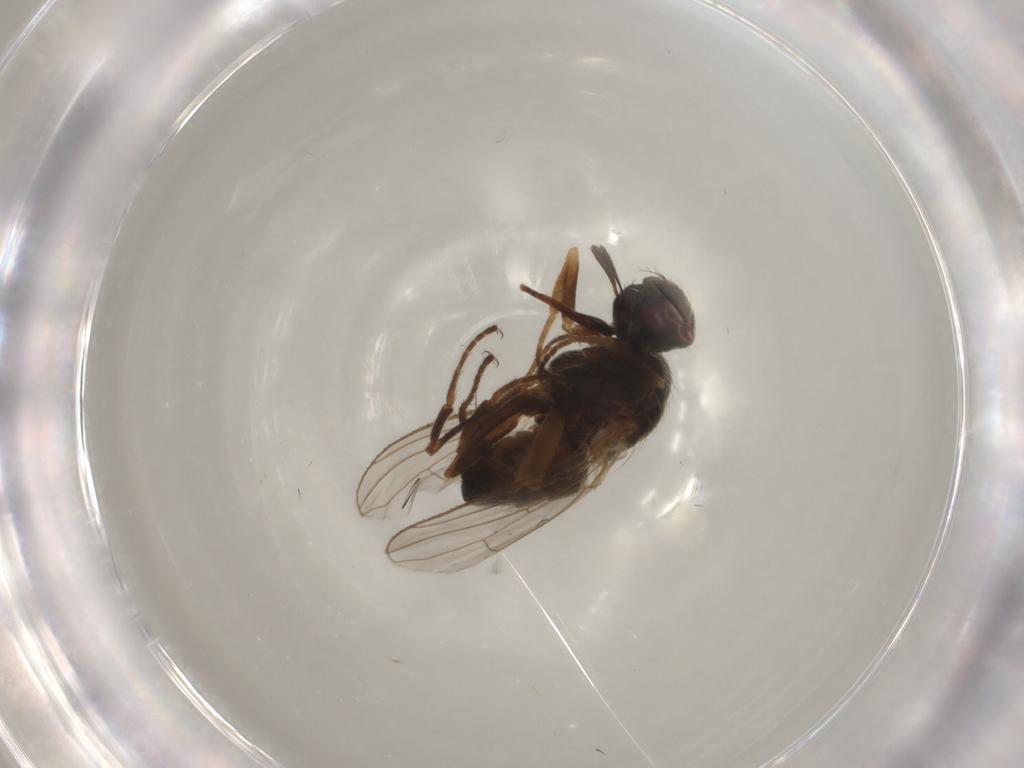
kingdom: Animalia
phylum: Arthropoda
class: Insecta
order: Diptera
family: Tephritidae
